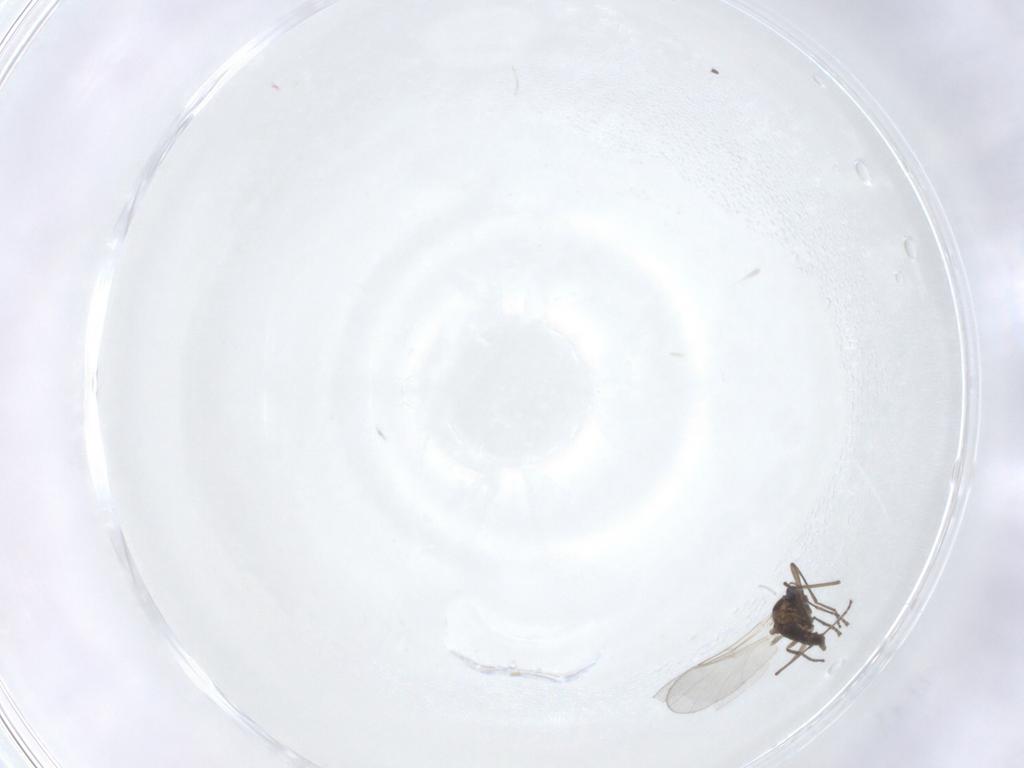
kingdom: Animalia
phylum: Arthropoda
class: Insecta
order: Diptera
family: Cecidomyiidae
